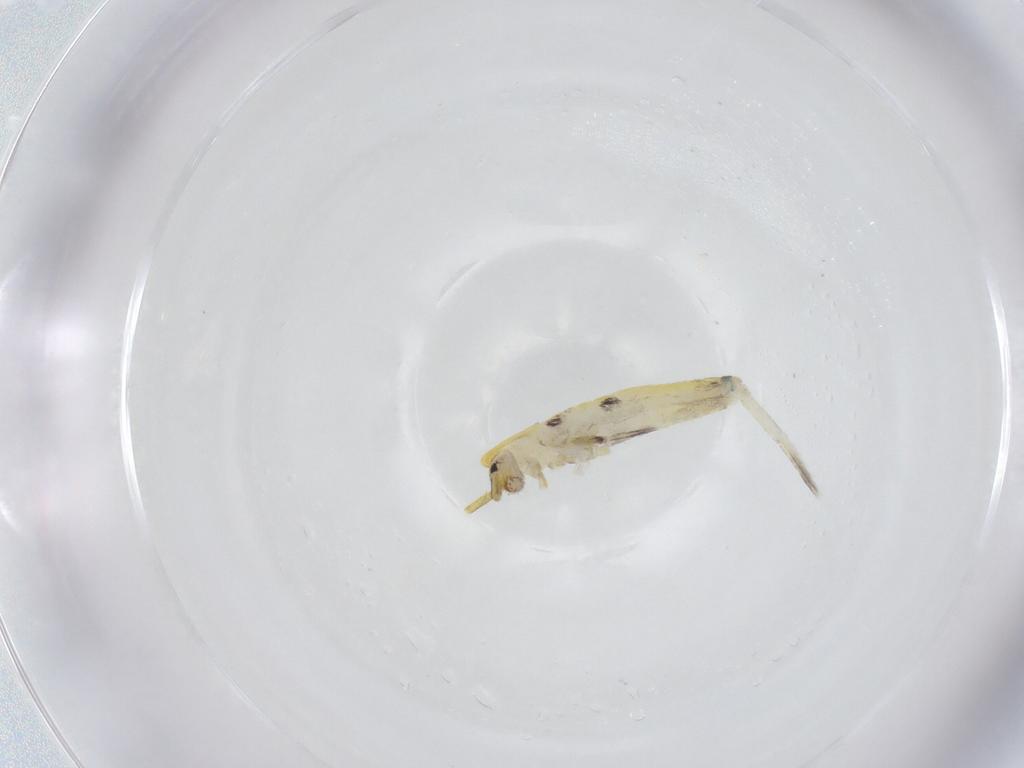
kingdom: Animalia
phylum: Arthropoda
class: Collembola
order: Entomobryomorpha
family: Entomobryidae
